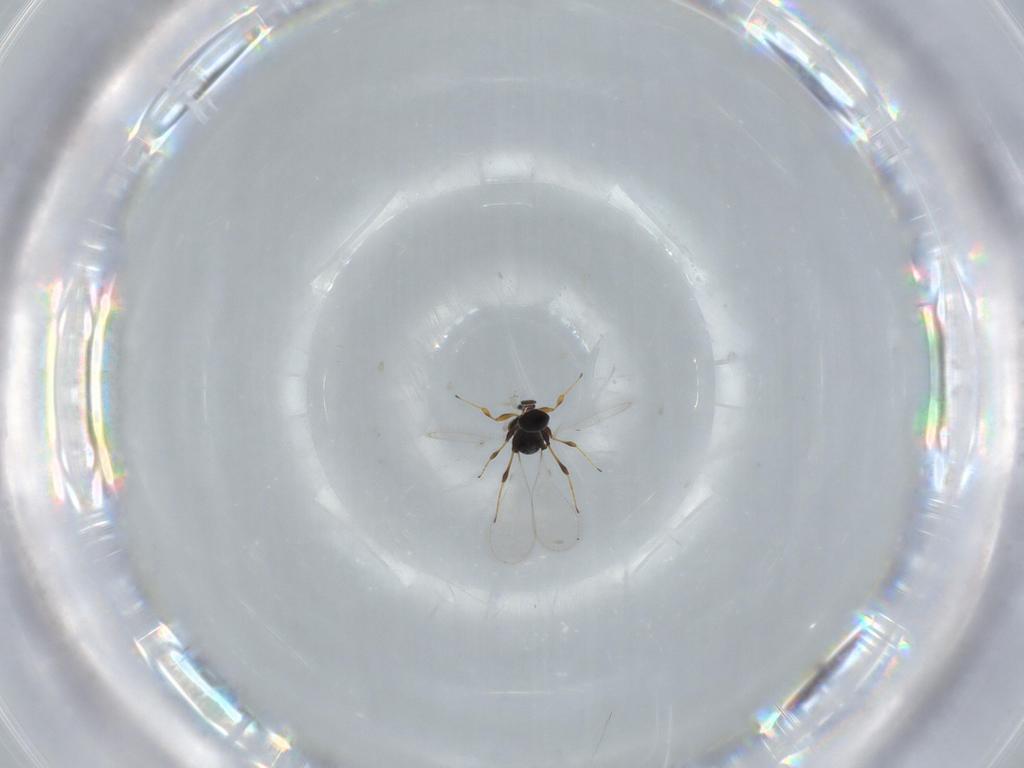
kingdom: Animalia
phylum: Arthropoda
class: Insecta
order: Hymenoptera
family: Platygastridae
